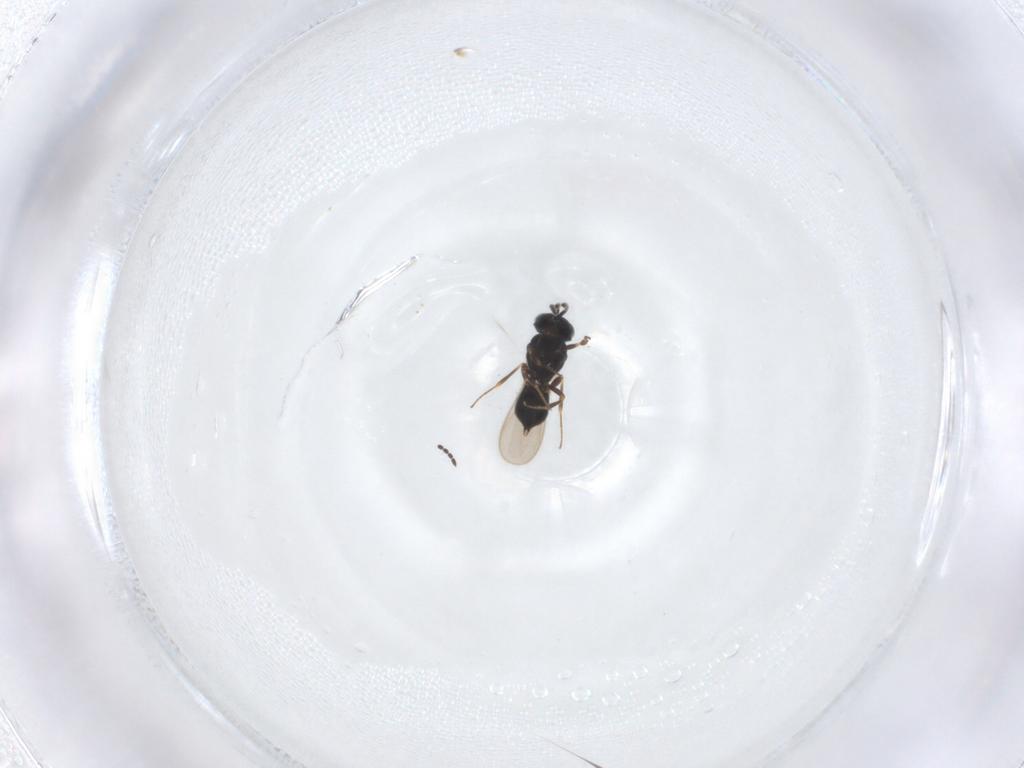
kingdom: Animalia
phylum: Arthropoda
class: Insecta
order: Hymenoptera
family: Scelionidae
